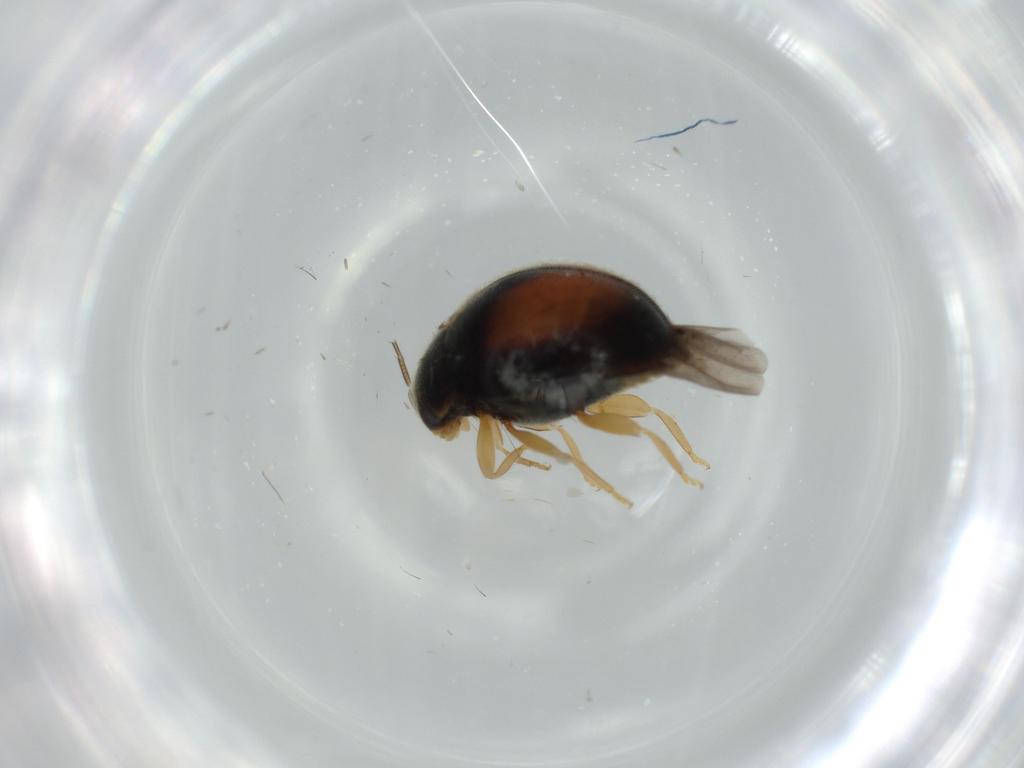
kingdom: Animalia
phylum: Arthropoda
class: Insecta
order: Coleoptera
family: Coccinellidae
